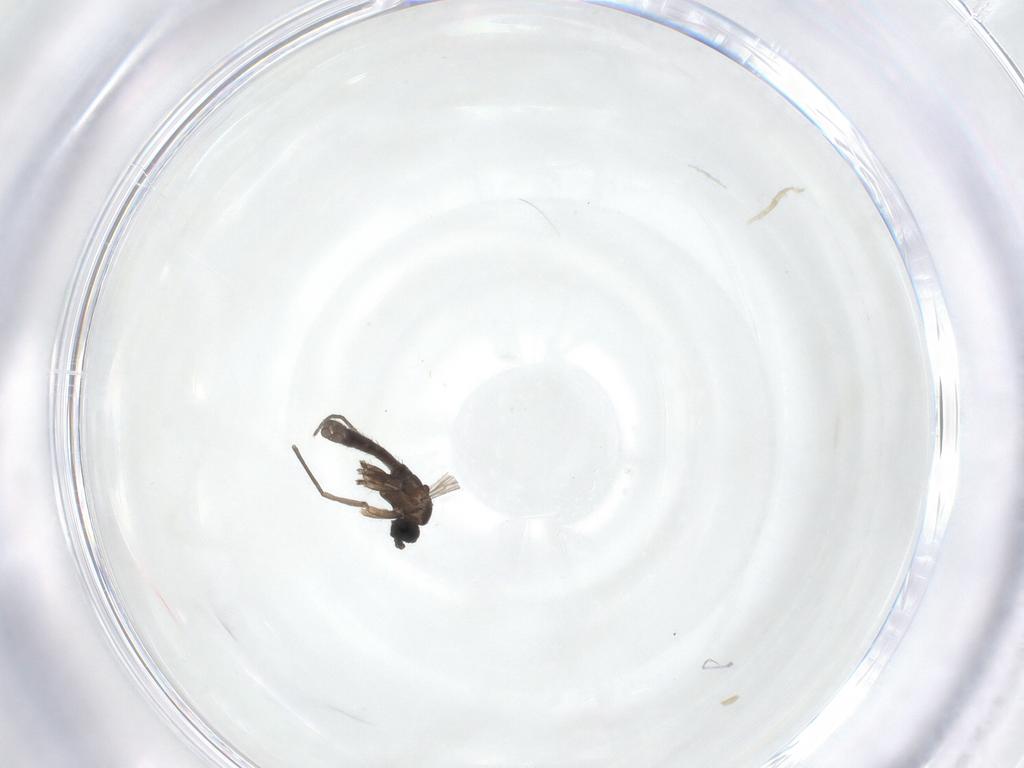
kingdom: Animalia
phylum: Arthropoda
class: Insecta
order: Diptera
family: Sciaridae
